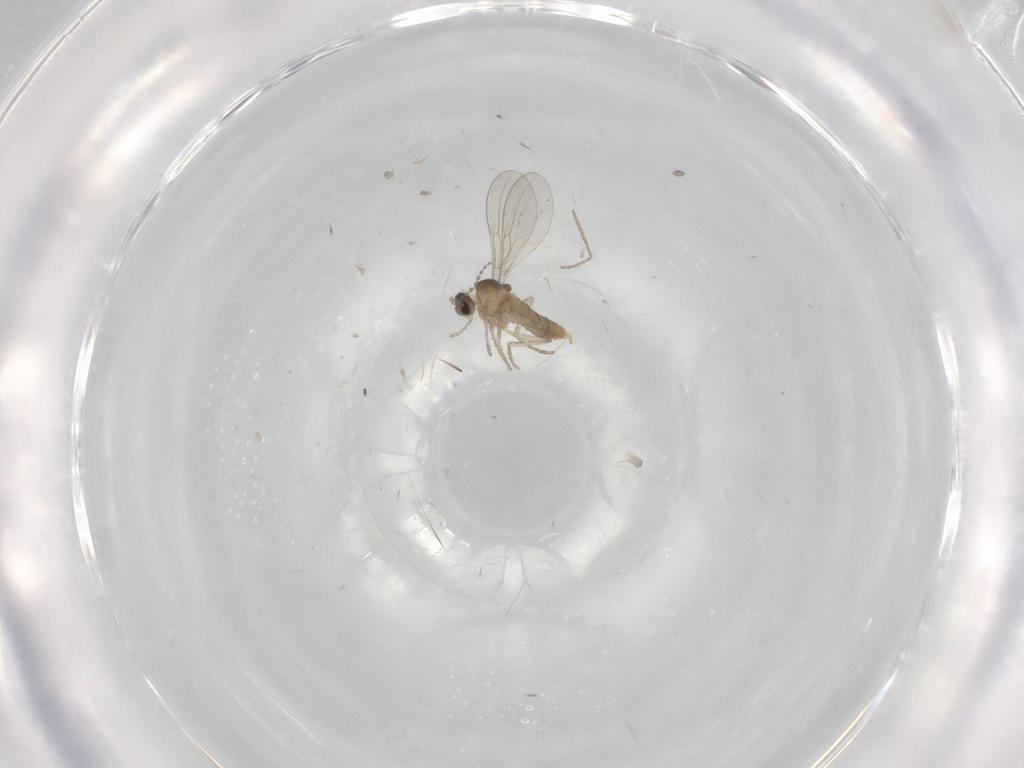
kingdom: Animalia
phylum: Arthropoda
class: Insecta
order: Diptera
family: Cecidomyiidae
